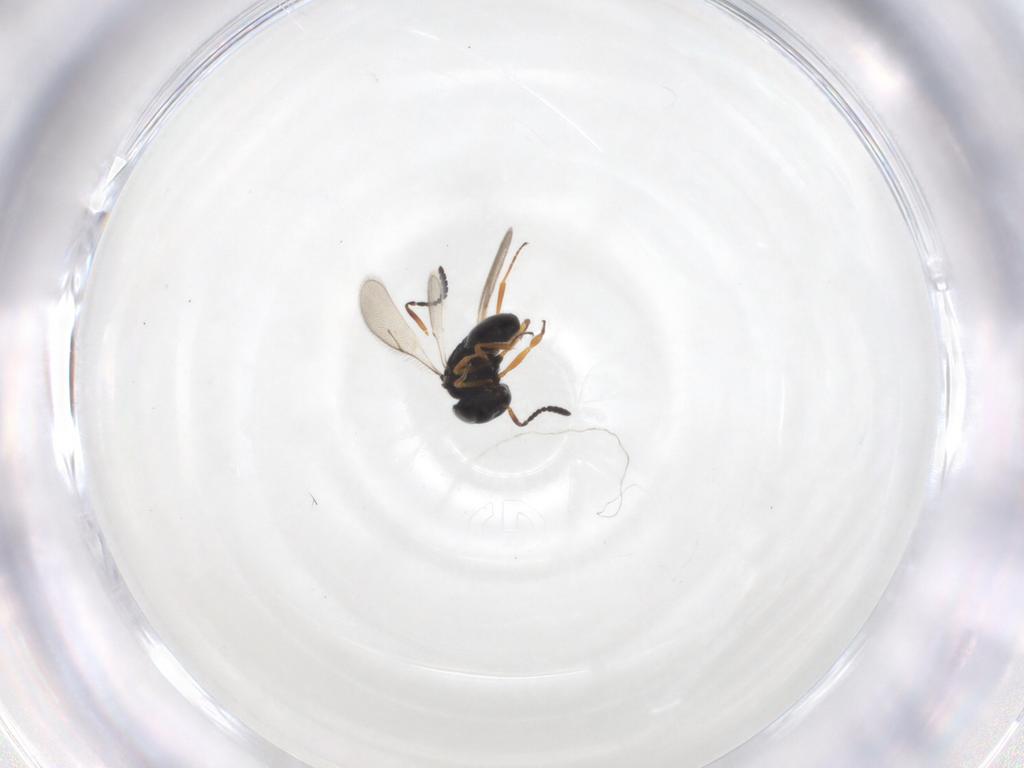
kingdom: Animalia
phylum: Arthropoda
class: Insecta
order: Hymenoptera
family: Scelionidae
